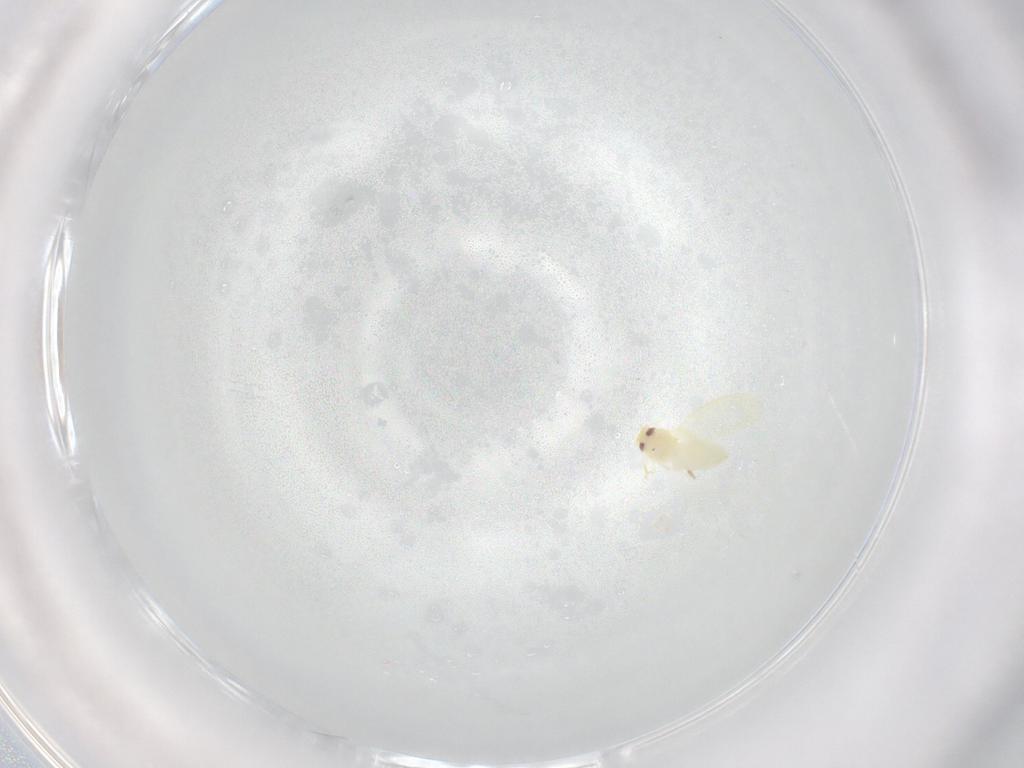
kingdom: Animalia
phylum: Arthropoda
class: Insecta
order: Hemiptera
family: Aleyrodidae
